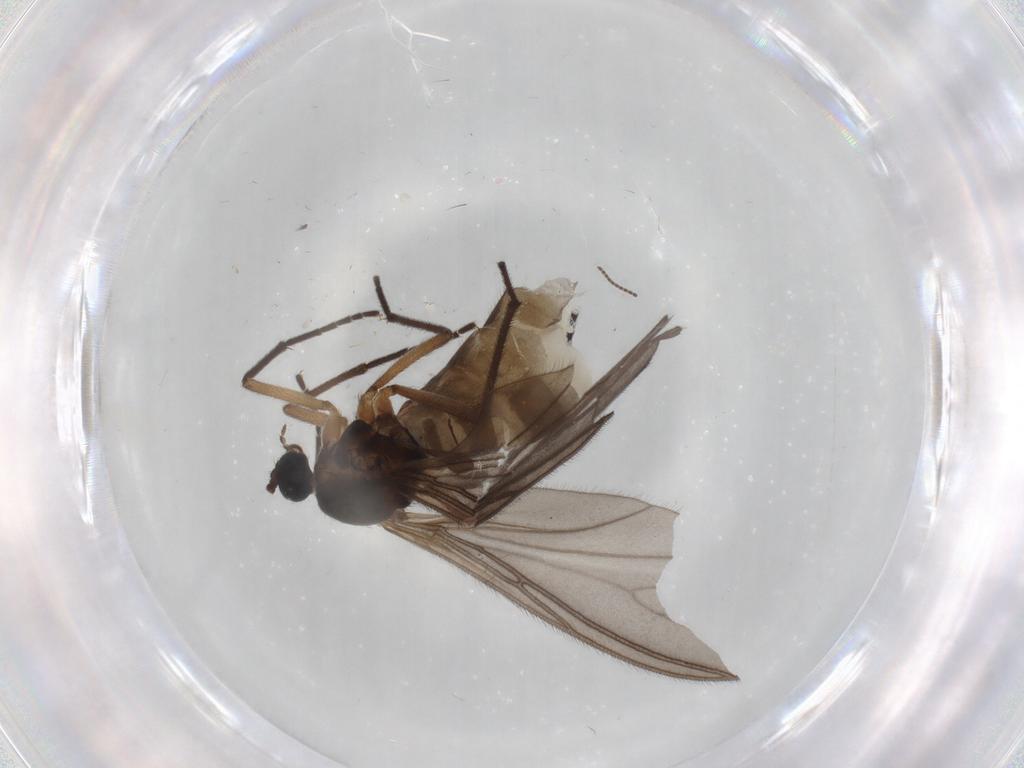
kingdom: Animalia
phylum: Arthropoda
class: Insecta
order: Diptera
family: Sciaridae
